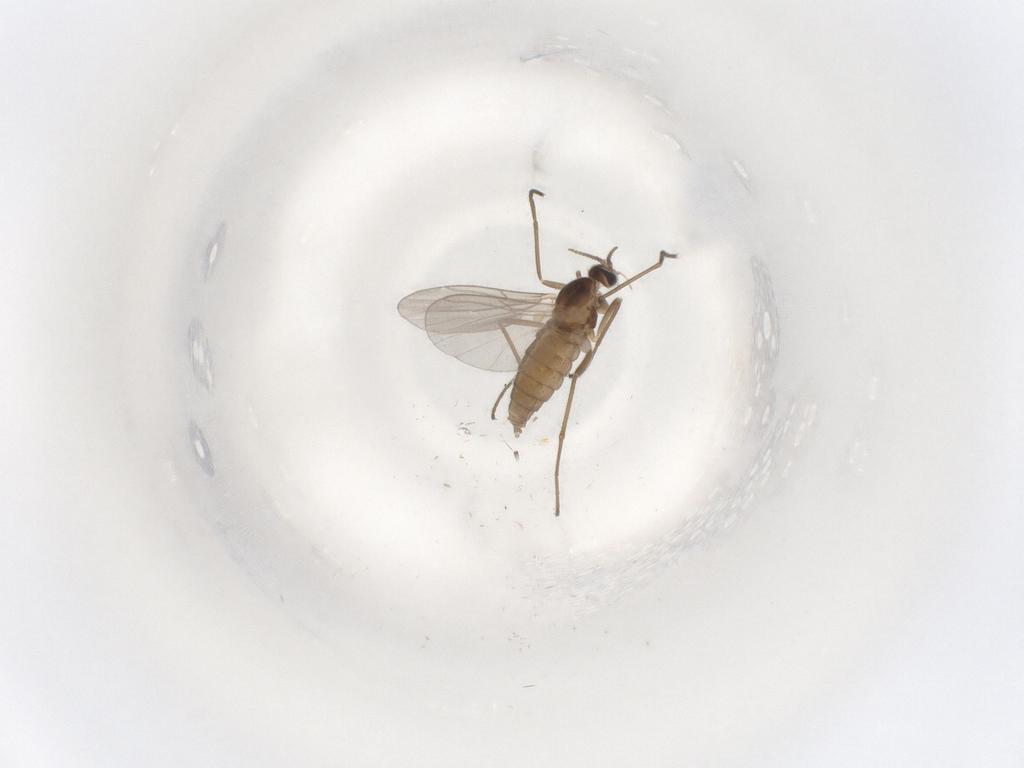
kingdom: Animalia
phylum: Arthropoda
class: Insecta
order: Diptera
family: Cecidomyiidae
